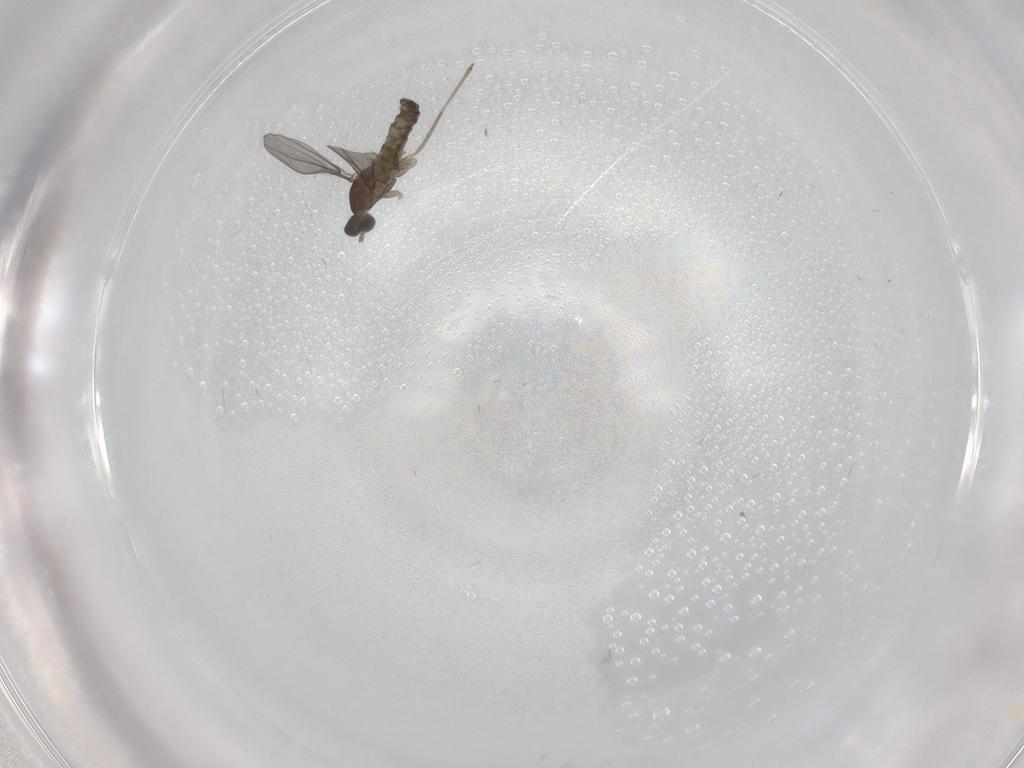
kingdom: Animalia
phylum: Arthropoda
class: Insecta
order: Diptera
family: Cecidomyiidae
